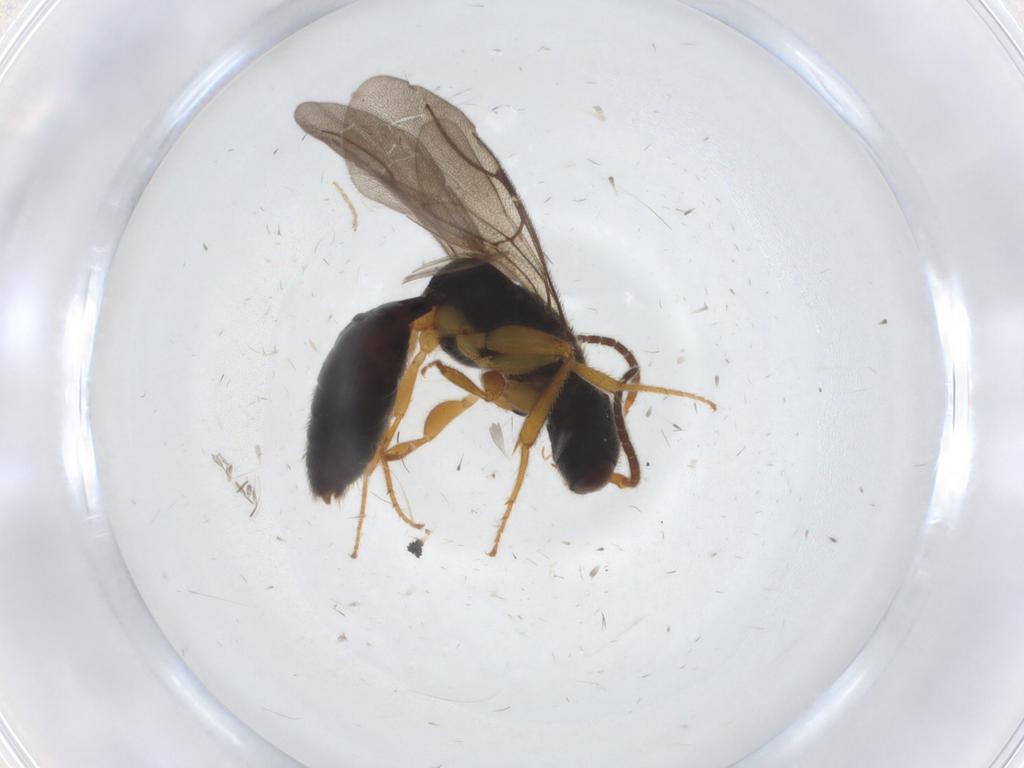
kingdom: Animalia
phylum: Arthropoda
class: Insecta
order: Hymenoptera
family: Bethylidae
